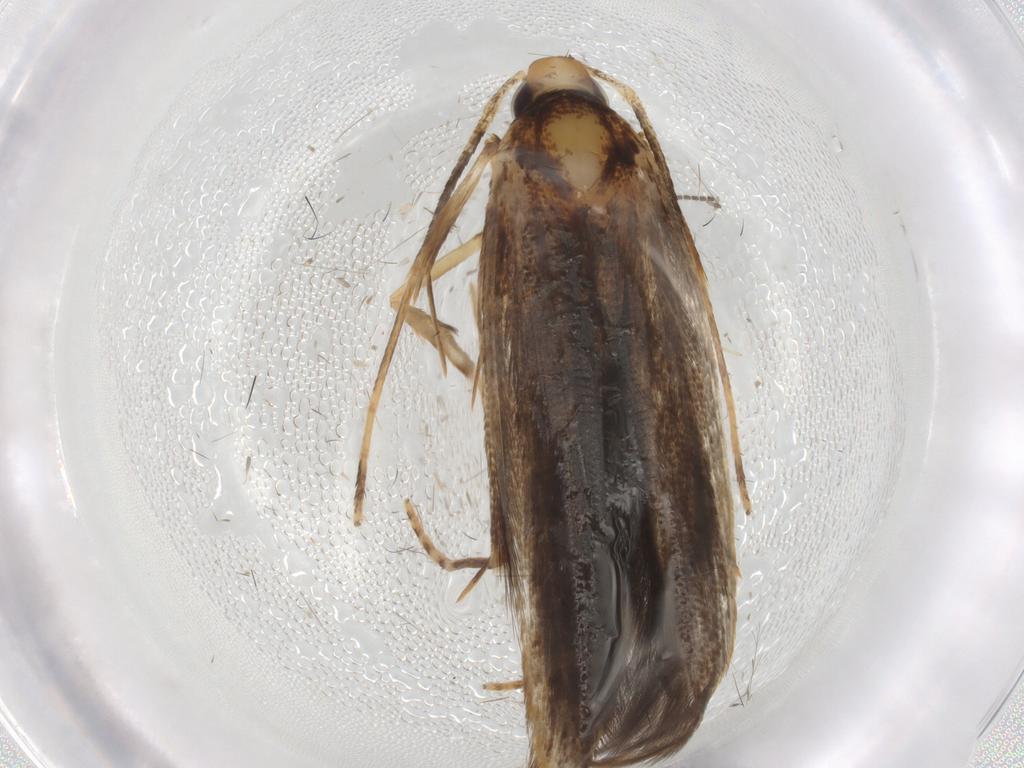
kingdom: Animalia
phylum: Arthropoda
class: Insecta
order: Lepidoptera
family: Pterolonchidae
